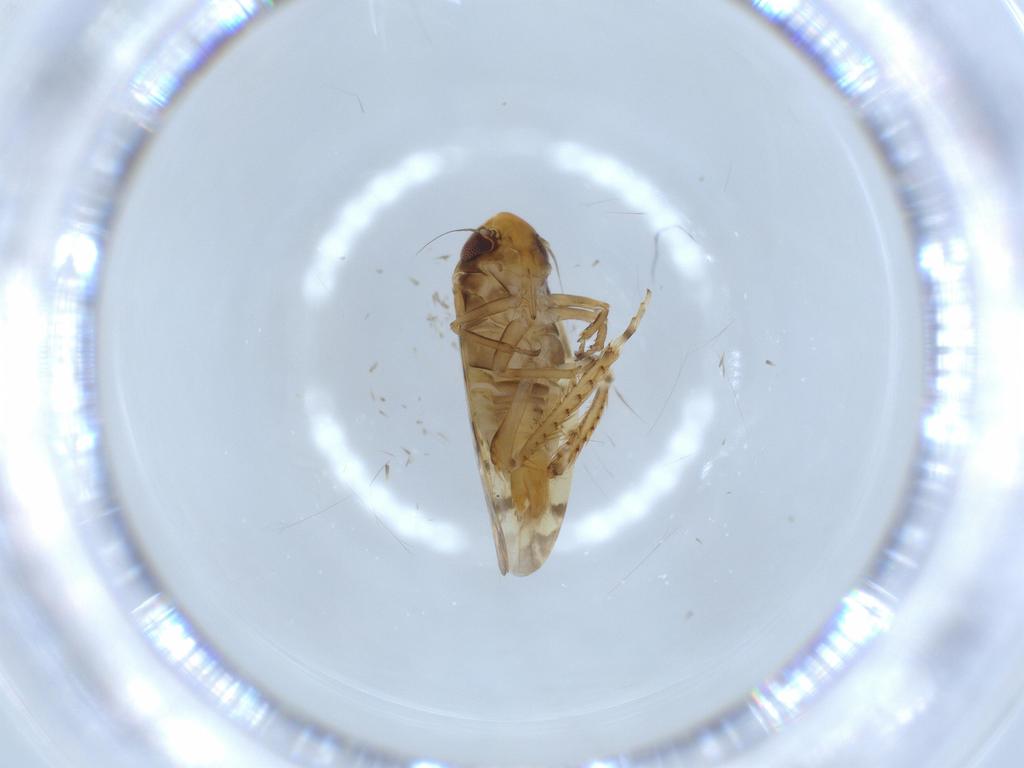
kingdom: Animalia
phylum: Arthropoda
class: Insecta
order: Hemiptera
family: Cicadellidae
